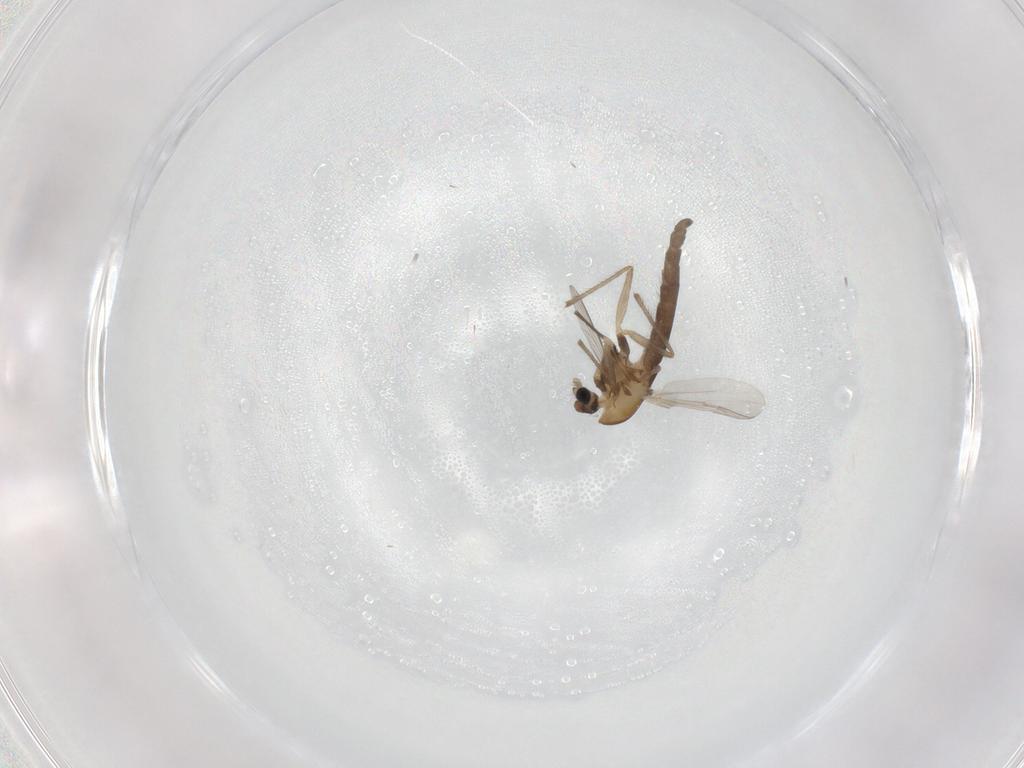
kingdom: Animalia
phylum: Arthropoda
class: Insecta
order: Diptera
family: Chironomidae
